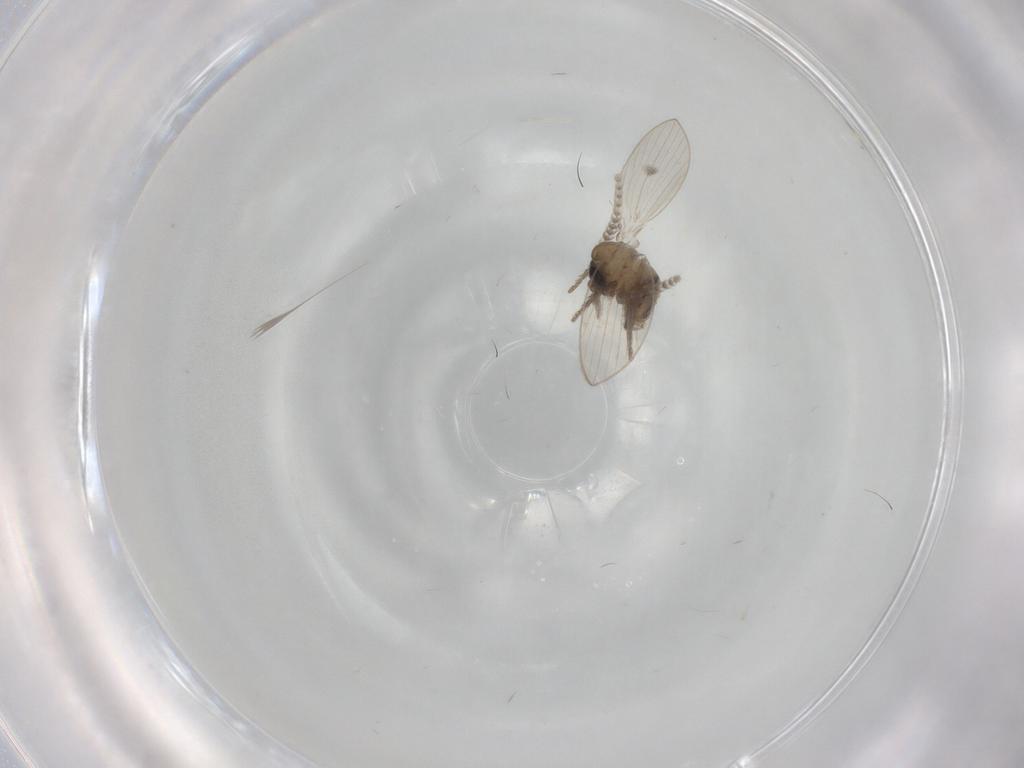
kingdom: Animalia
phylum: Arthropoda
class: Insecta
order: Diptera
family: Psychodidae
